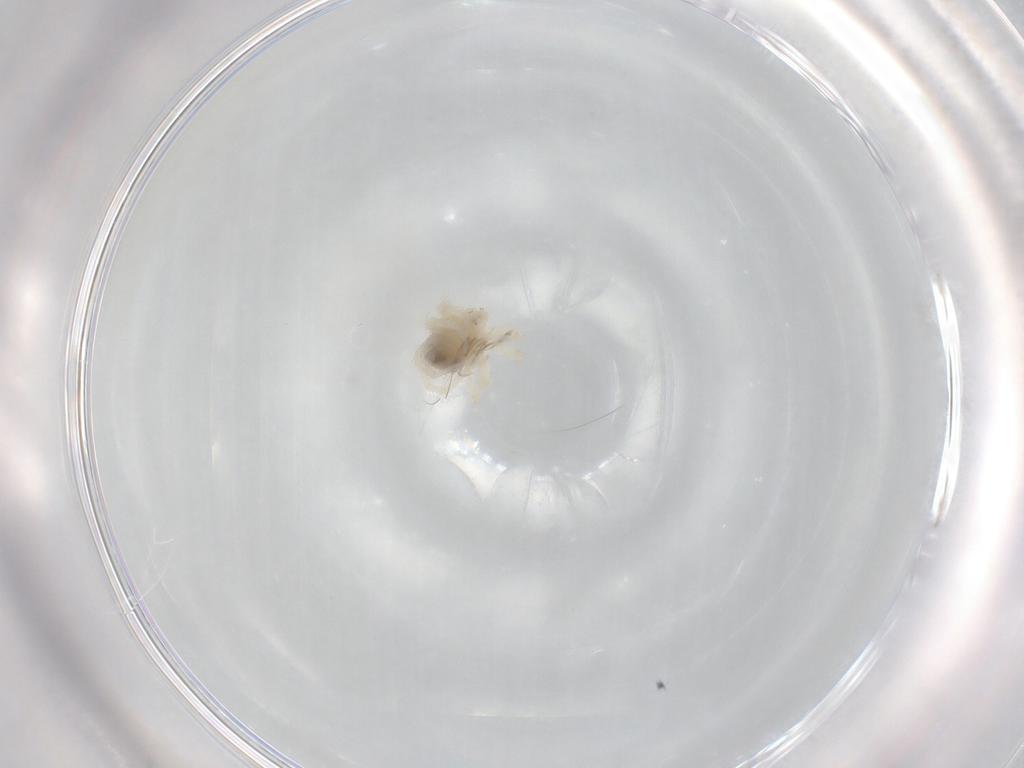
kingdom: Animalia
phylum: Arthropoda
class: Arachnida
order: Trombidiformes
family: Anystidae
